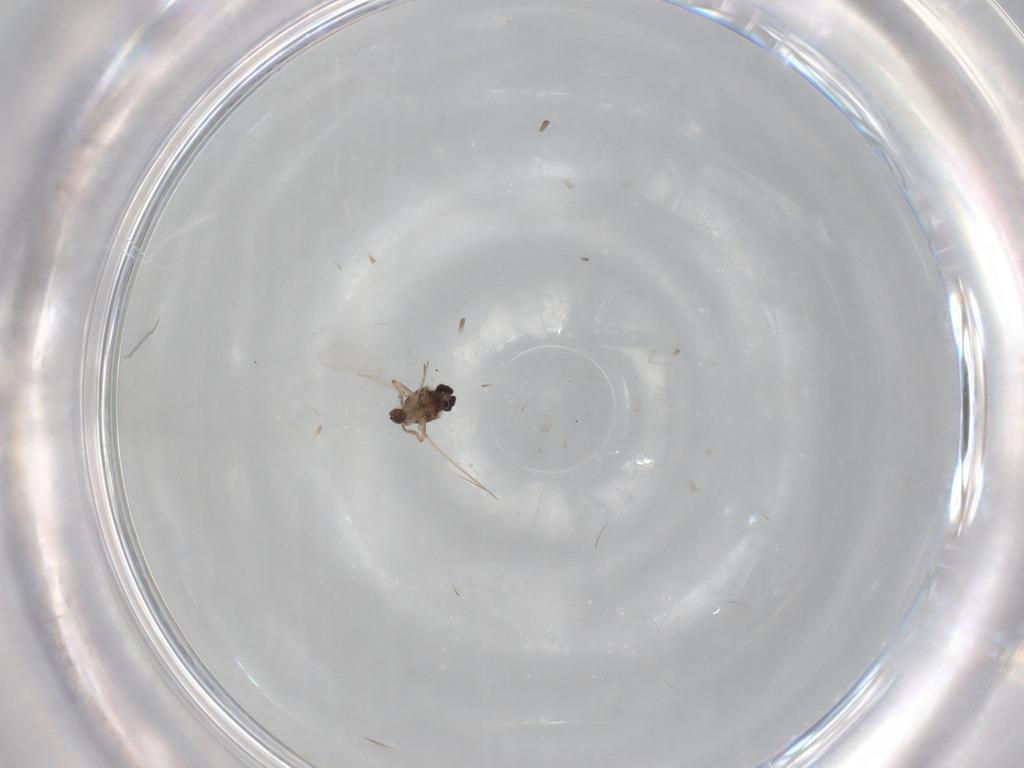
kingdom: Animalia
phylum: Arthropoda
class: Insecta
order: Diptera
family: Ceratopogonidae
